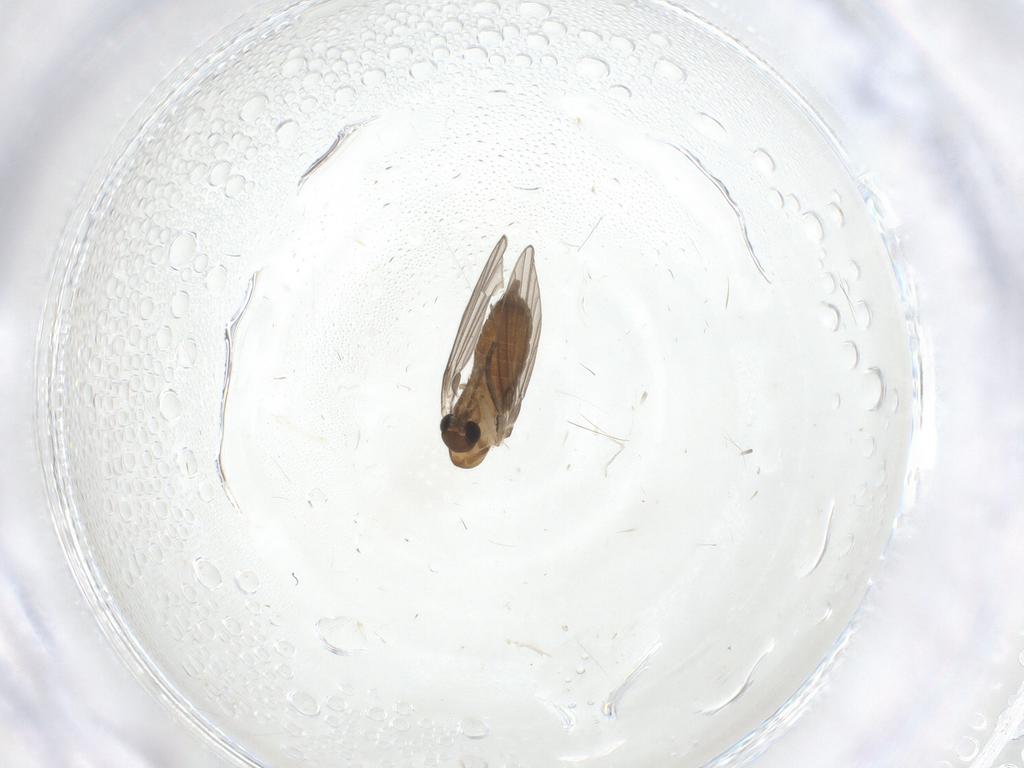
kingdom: Animalia
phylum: Arthropoda
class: Insecta
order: Diptera
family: Cecidomyiidae
